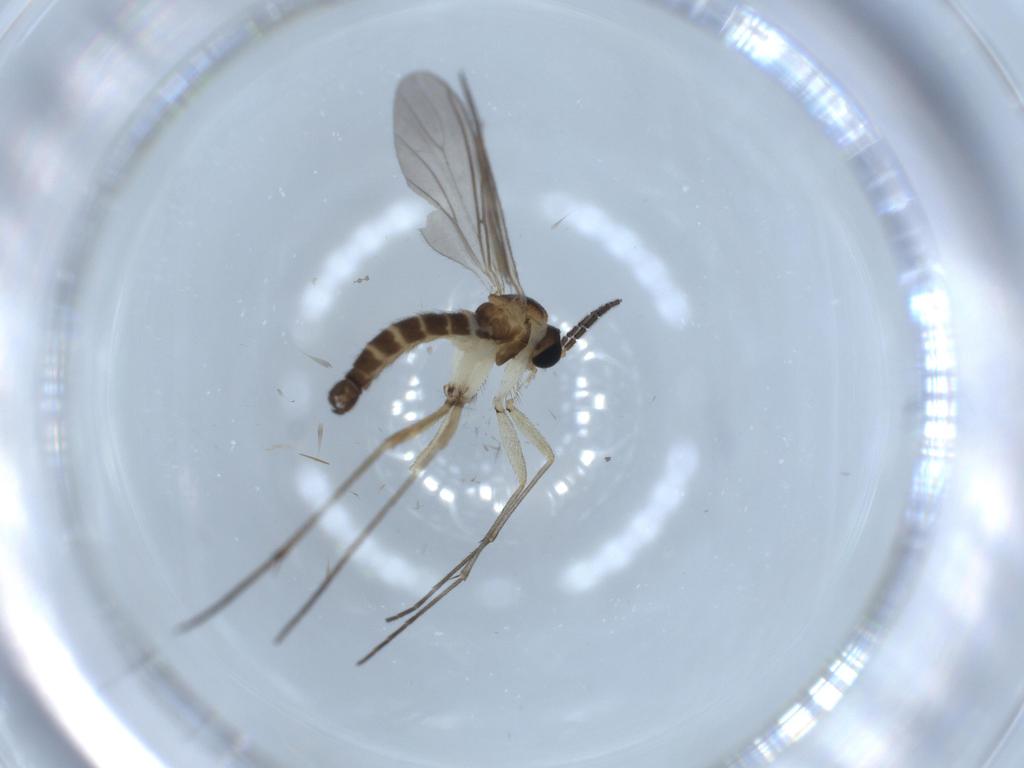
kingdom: Animalia
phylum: Arthropoda
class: Insecta
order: Diptera
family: Sciaridae
